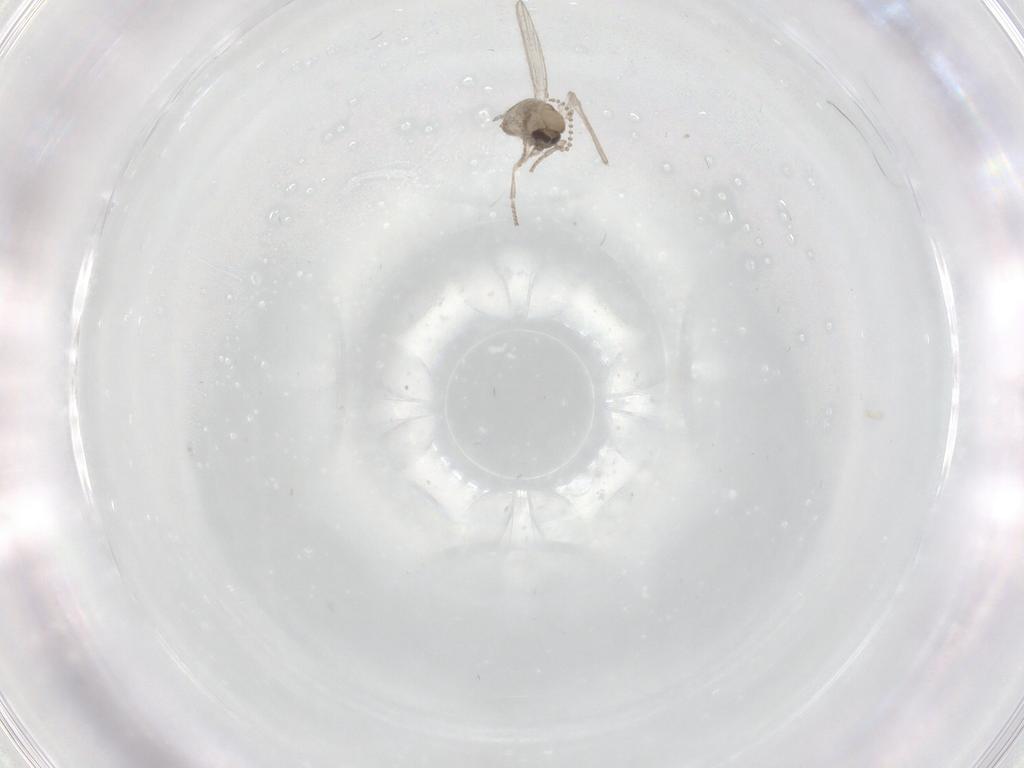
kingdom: Animalia
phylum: Arthropoda
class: Insecta
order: Diptera
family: Psychodidae
